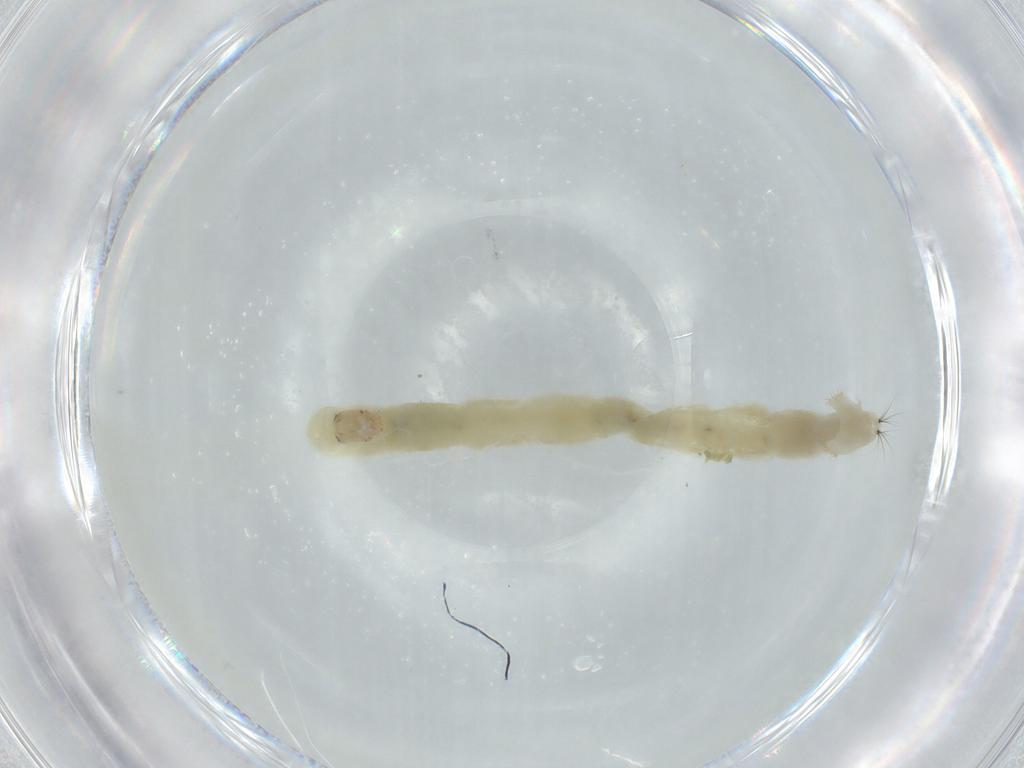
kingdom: Animalia
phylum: Arthropoda
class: Insecta
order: Diptera
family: Chironomidae
